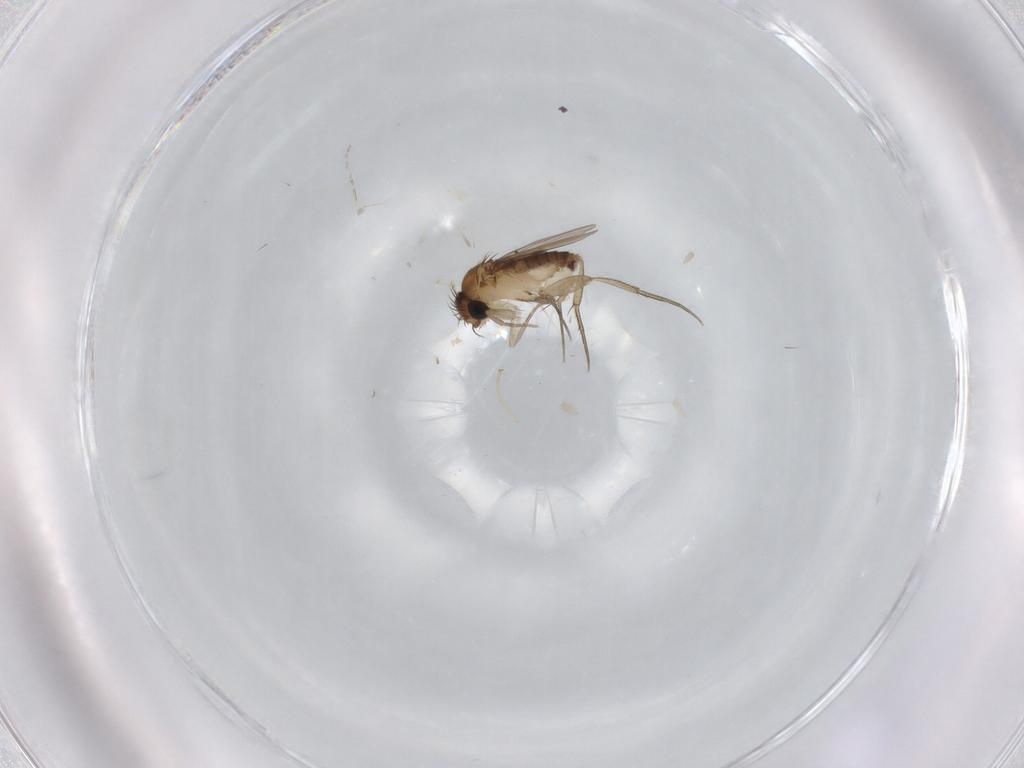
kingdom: Animalia
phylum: Arthropoda
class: Insecta
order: Diptera
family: Phoridae
